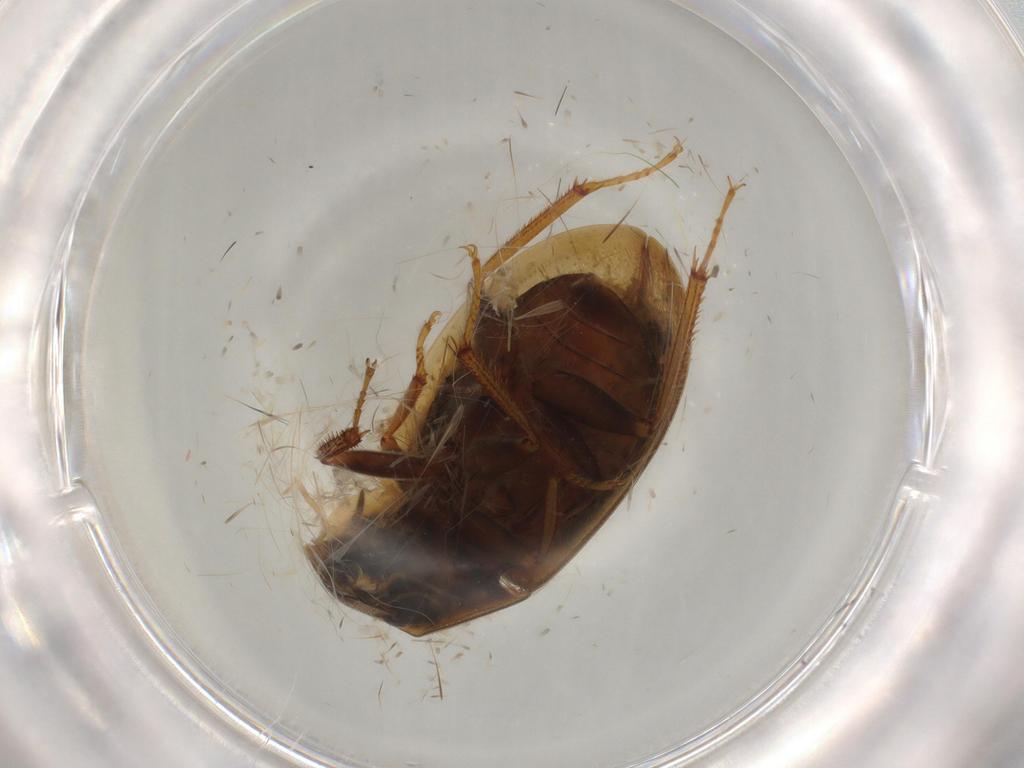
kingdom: Animalia
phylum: Arthropoda
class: Insecta
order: Coleoptera
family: Hydrophilidae
